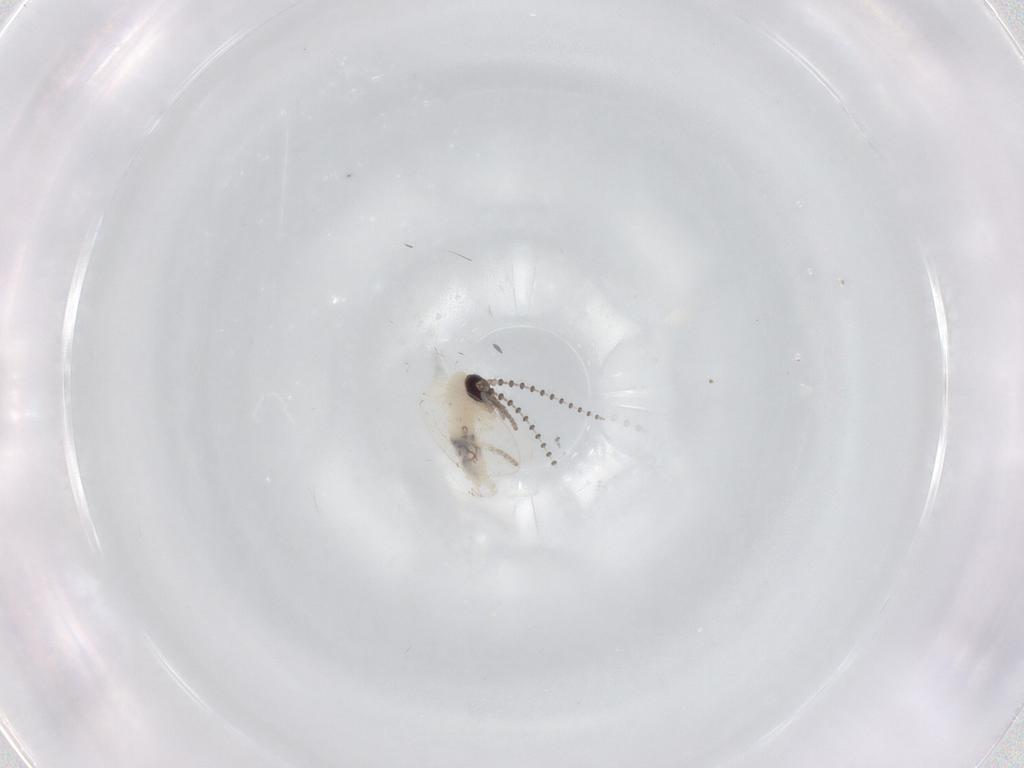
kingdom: Animalia
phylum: Arthropoda
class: Insecta
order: Diptera
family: Psychodidae
